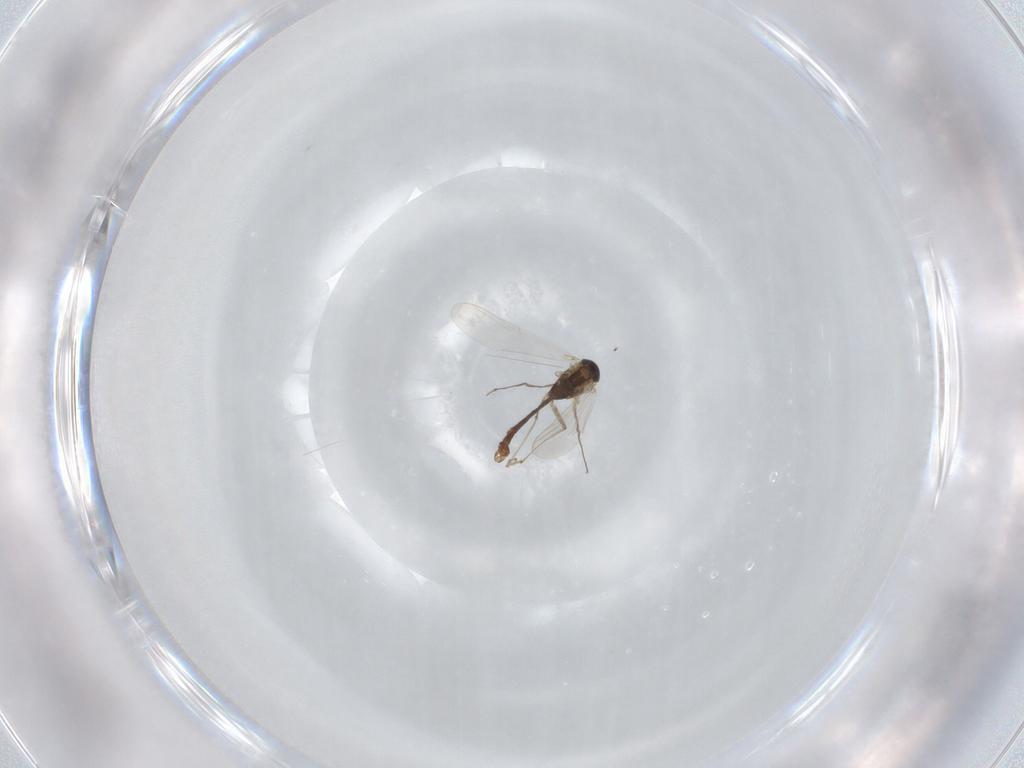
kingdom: Animalia
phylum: Arthropoda
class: Insecta
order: Diptera
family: Chironomidae
